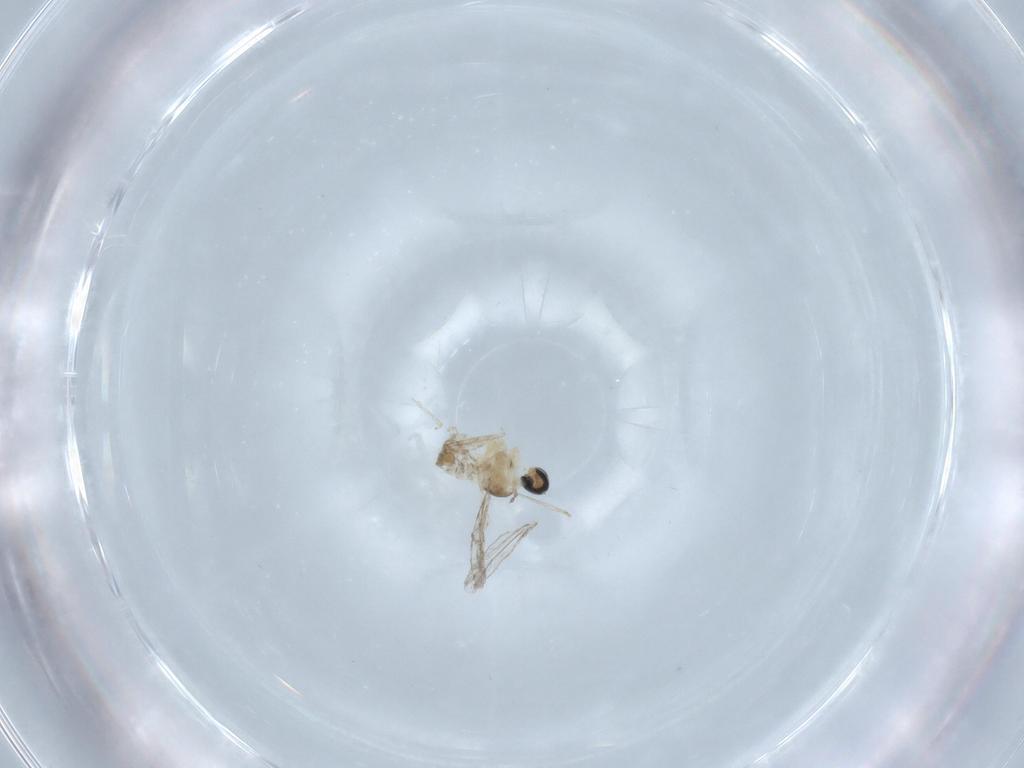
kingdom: Animalia
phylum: Arthropoda
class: Insecta
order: Diptera
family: Cecidomyiidae
